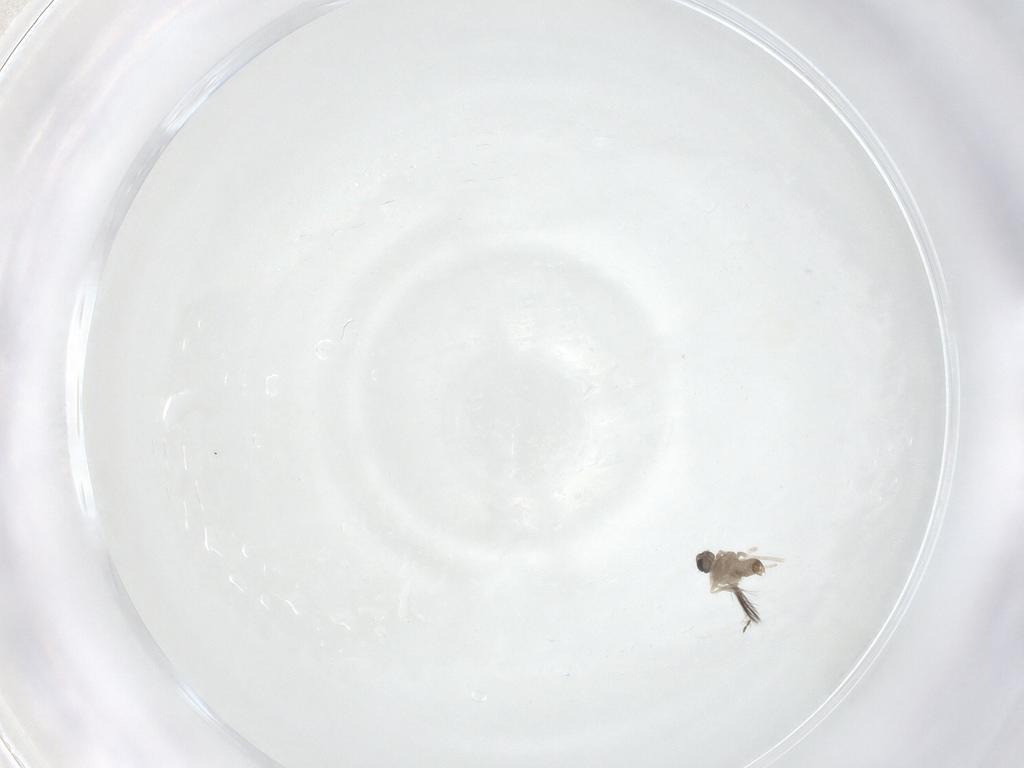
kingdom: Animalia
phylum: Arthropoda
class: Insecta
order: Diptera
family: Cecidomyiidae
